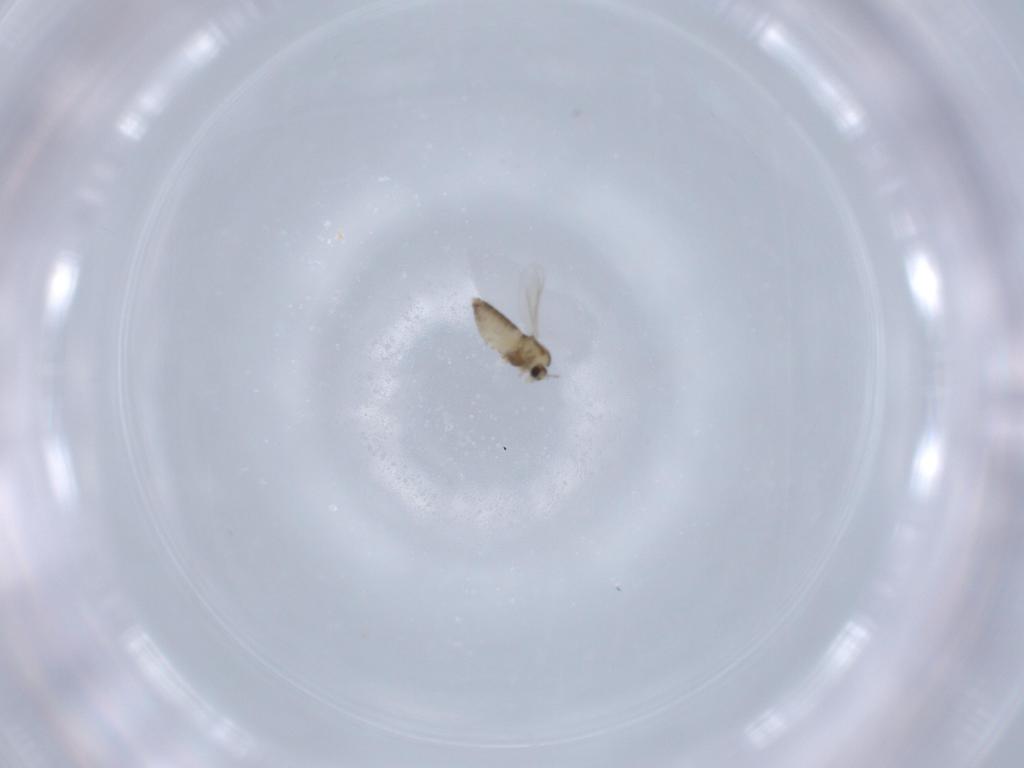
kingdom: Animalia
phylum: Arthropoda
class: Insecta
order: Diptera
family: Chironomidae
